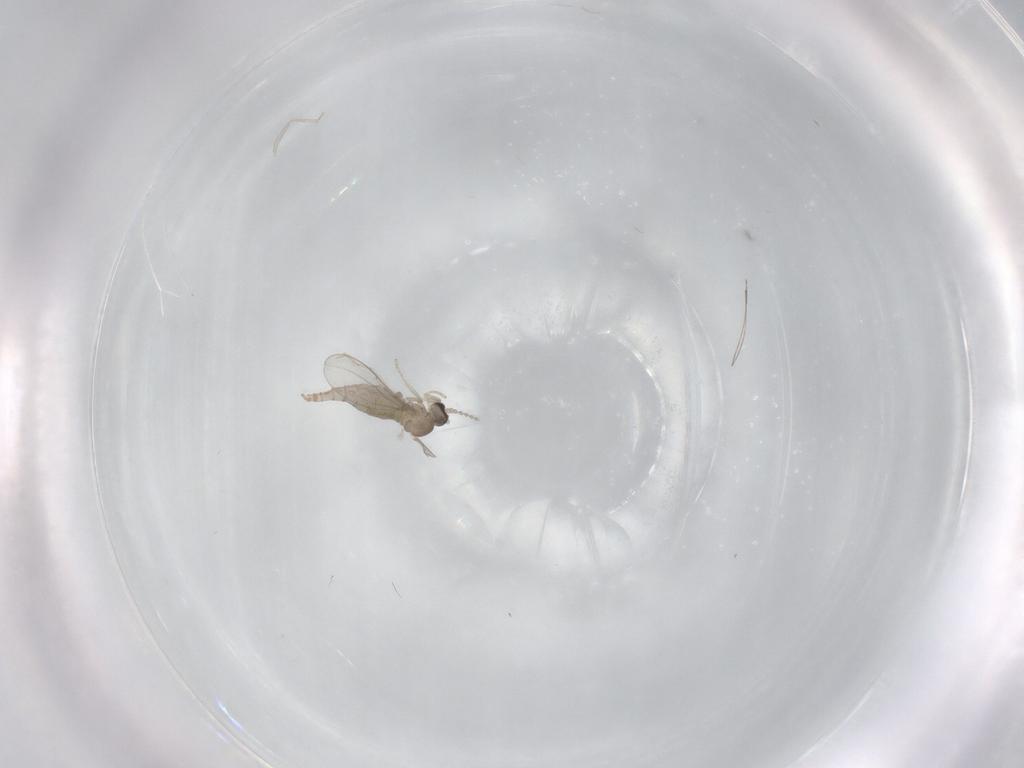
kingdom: Animalia
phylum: Arthropoda
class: Insecta
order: Diptera
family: Cecidomyiidae
